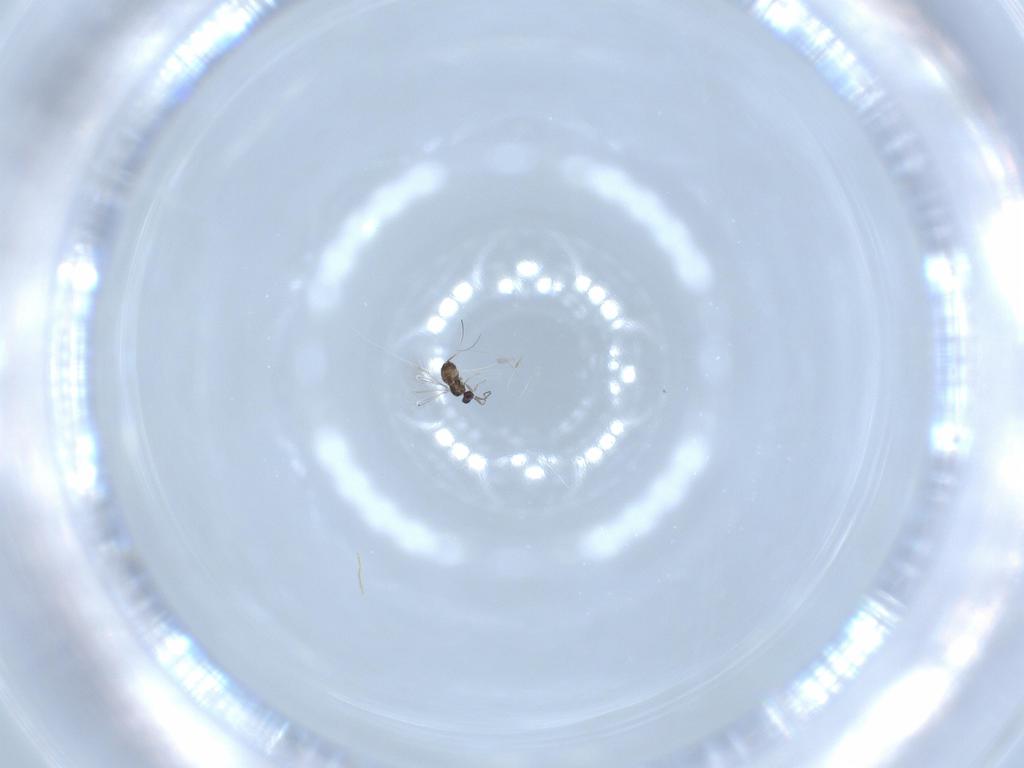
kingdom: Animalia
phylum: Arthropoda
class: Insecta
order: Hymenoptera
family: Trichogrammatidae
